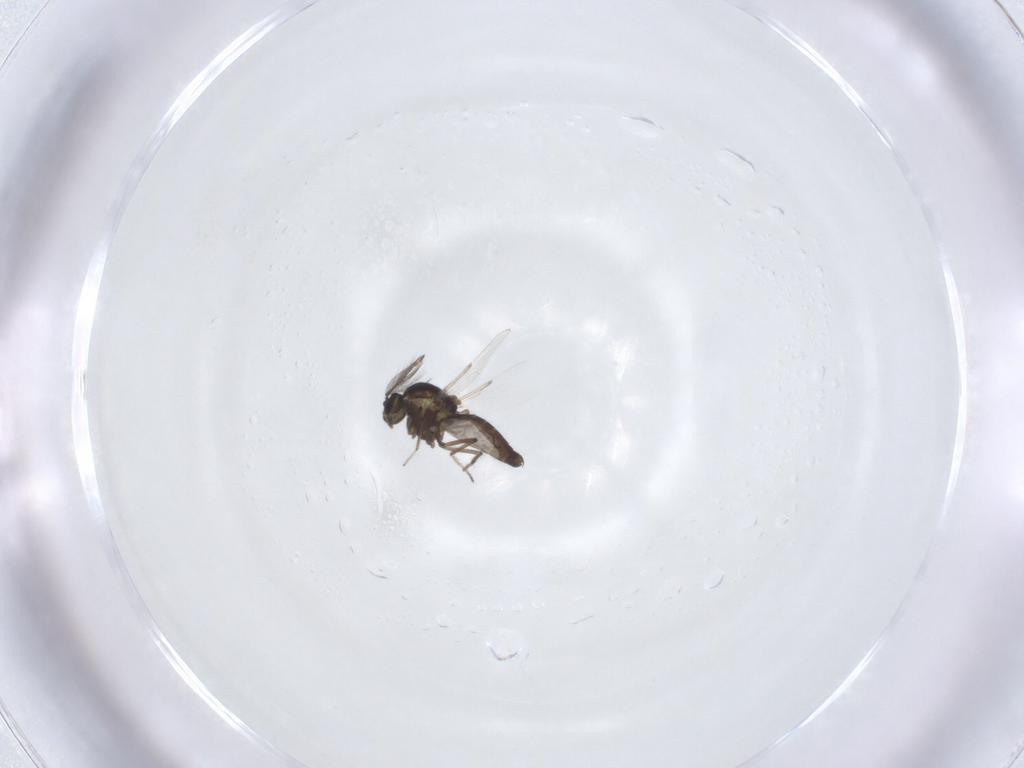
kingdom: Animalia
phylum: Arthropoda
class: Insecta
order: Diptera
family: Ceratopogonidae
